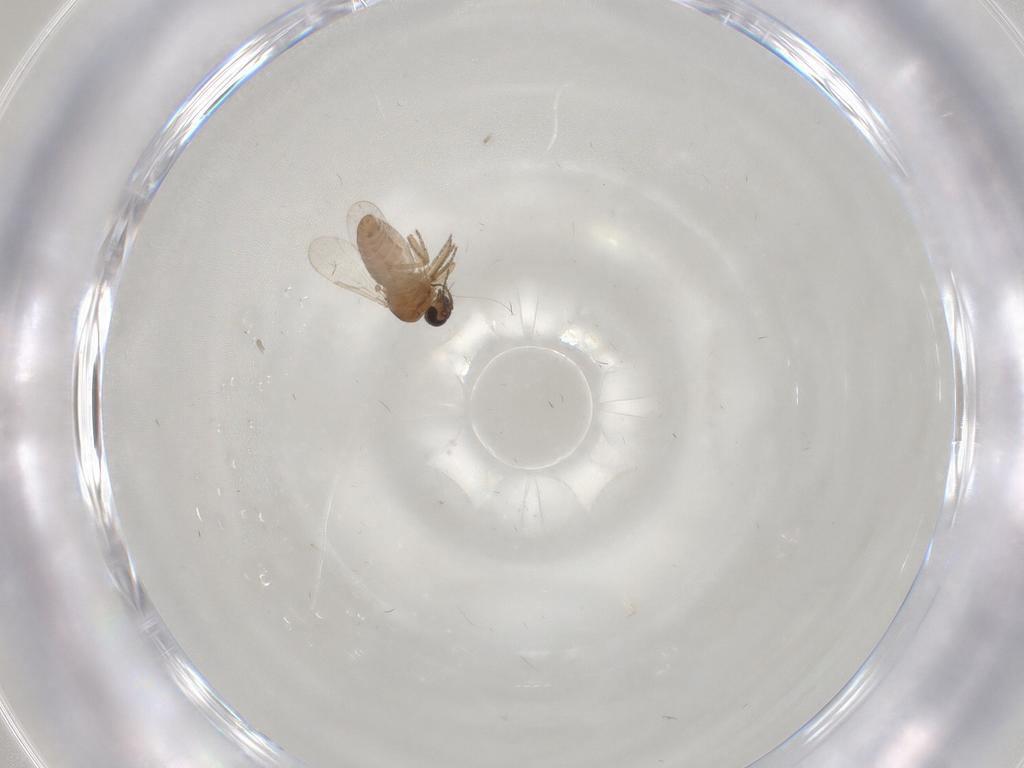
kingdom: Animalia
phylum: Arthropoda
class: Insecta
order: Diptera
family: Ceratopogonidae
